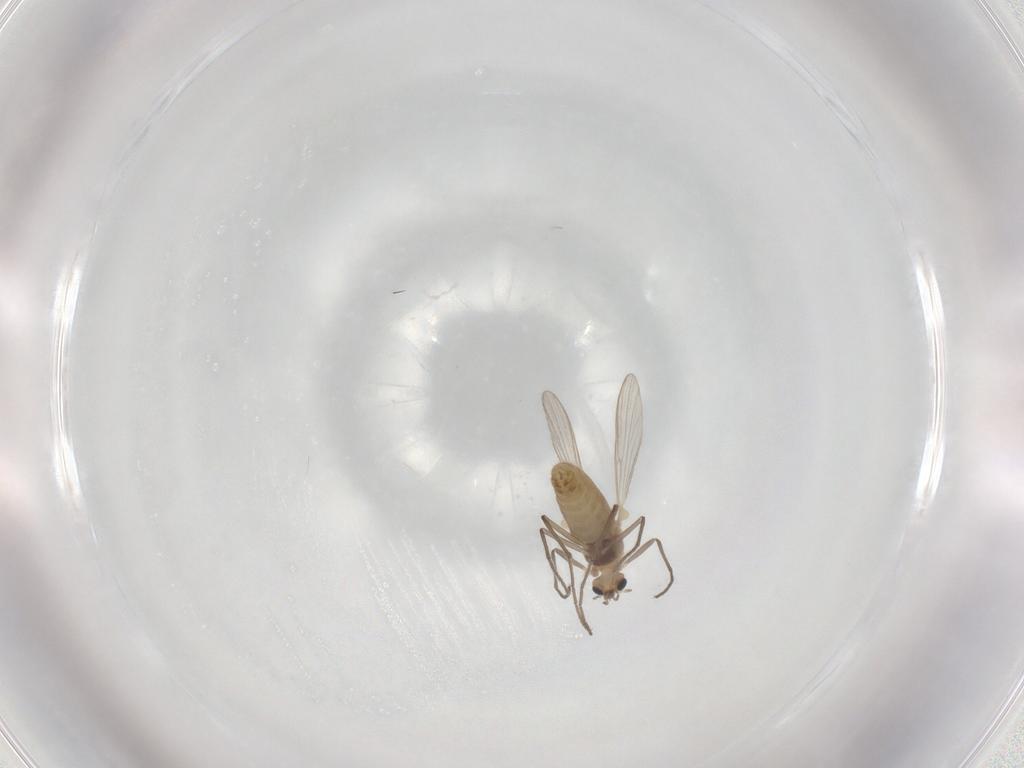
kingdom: Animalia
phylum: Arthropoda
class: Insecta
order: Diptera
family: Chironomidae
